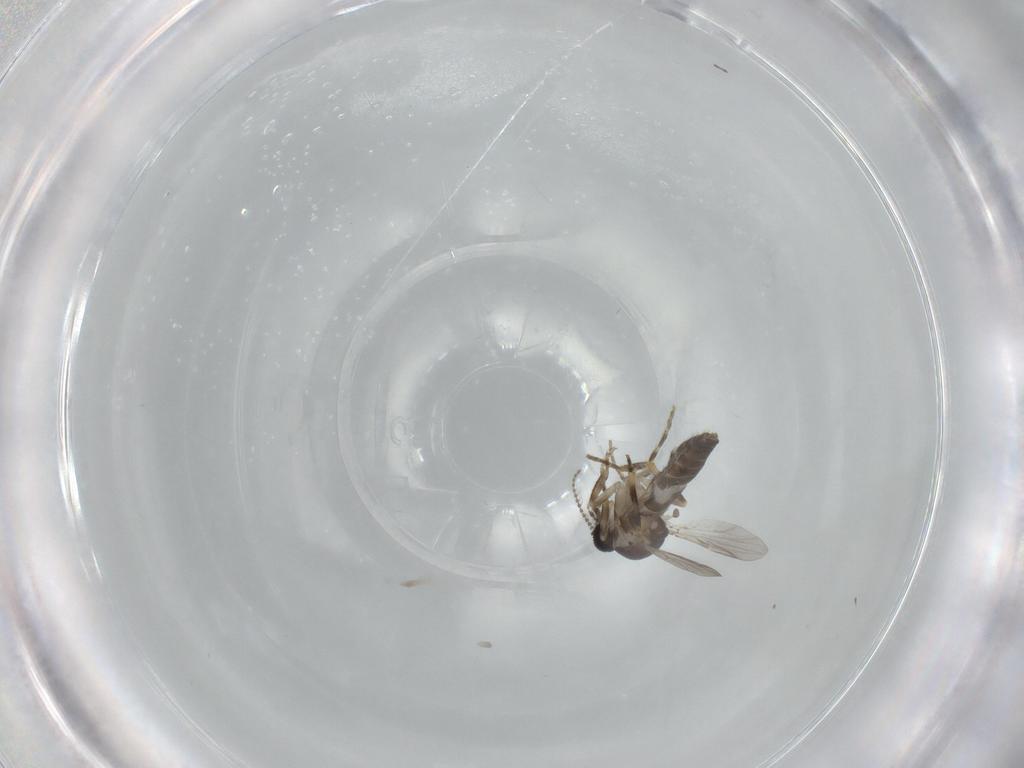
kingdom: Animalia
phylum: Arthropoda
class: Insecta
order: Diptera
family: Ceratopogonidae
